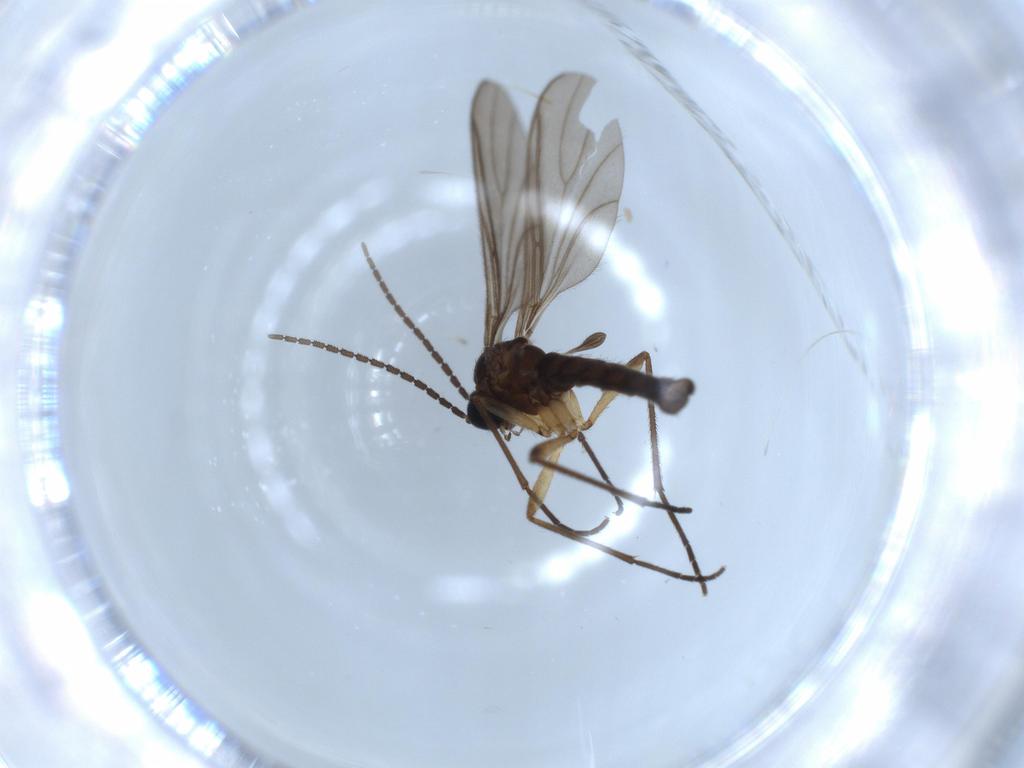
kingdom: Animalia
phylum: Arthropoda
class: Insecta
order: Diptera
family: Sciaridae
